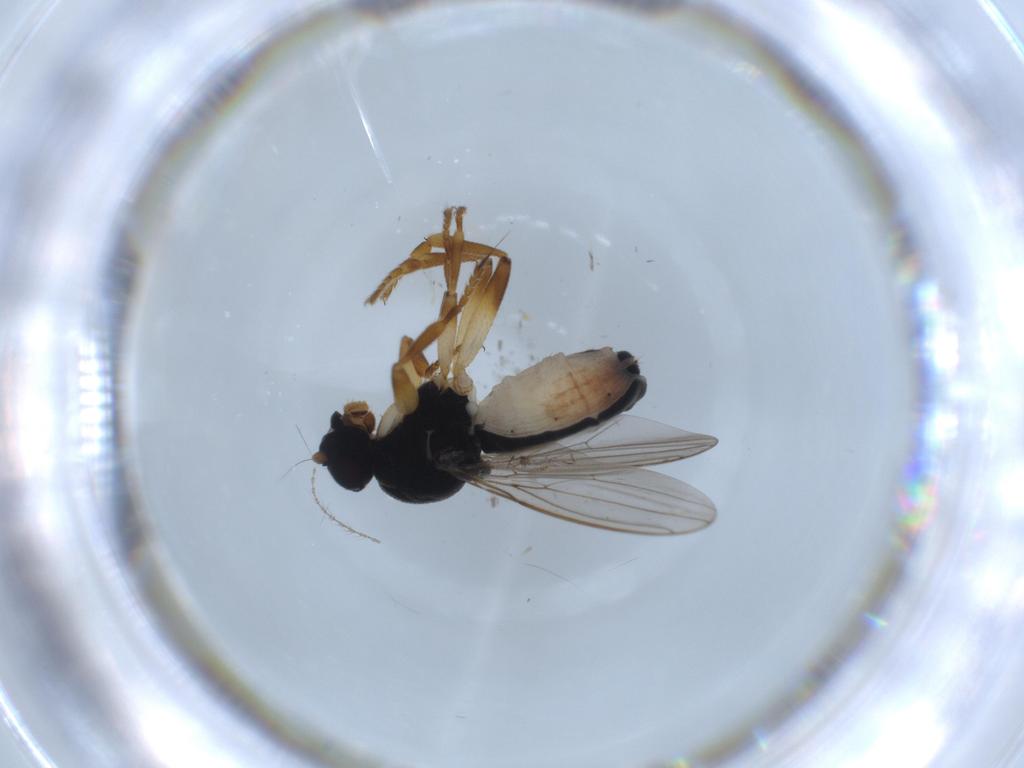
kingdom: Animalia
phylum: Arthropoda
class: Insecta
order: Diptera
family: Sphaeroceridae
